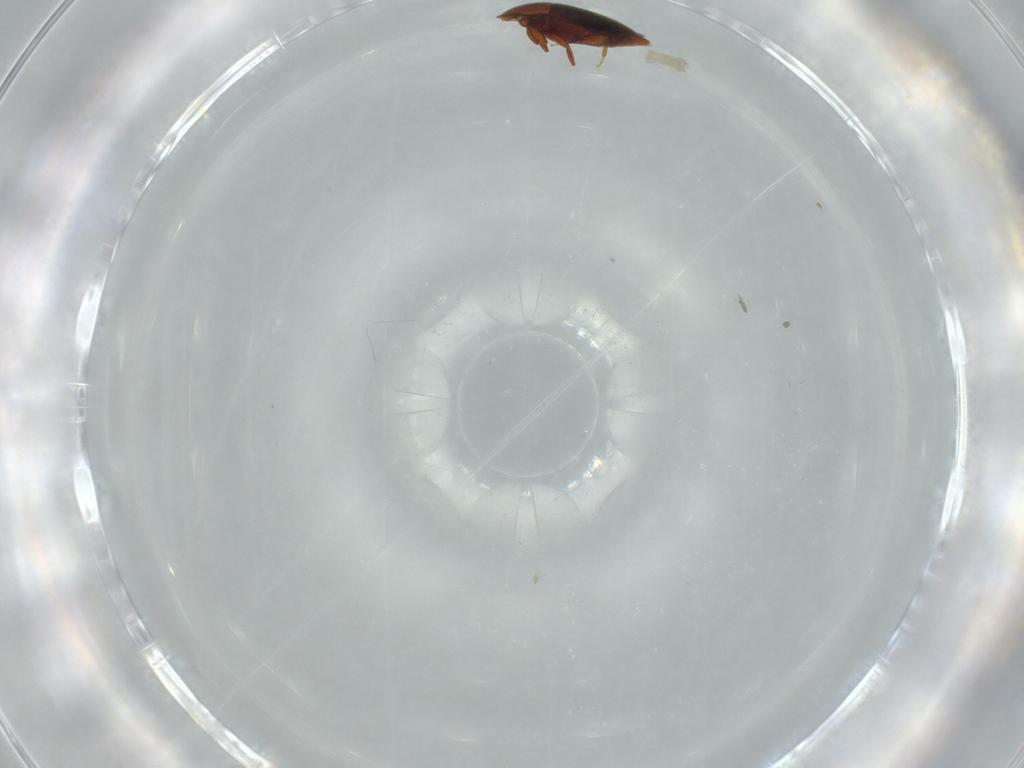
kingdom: Animalia
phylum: Arthropoda
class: Insecta
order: Coleoptera
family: Corylophidae
